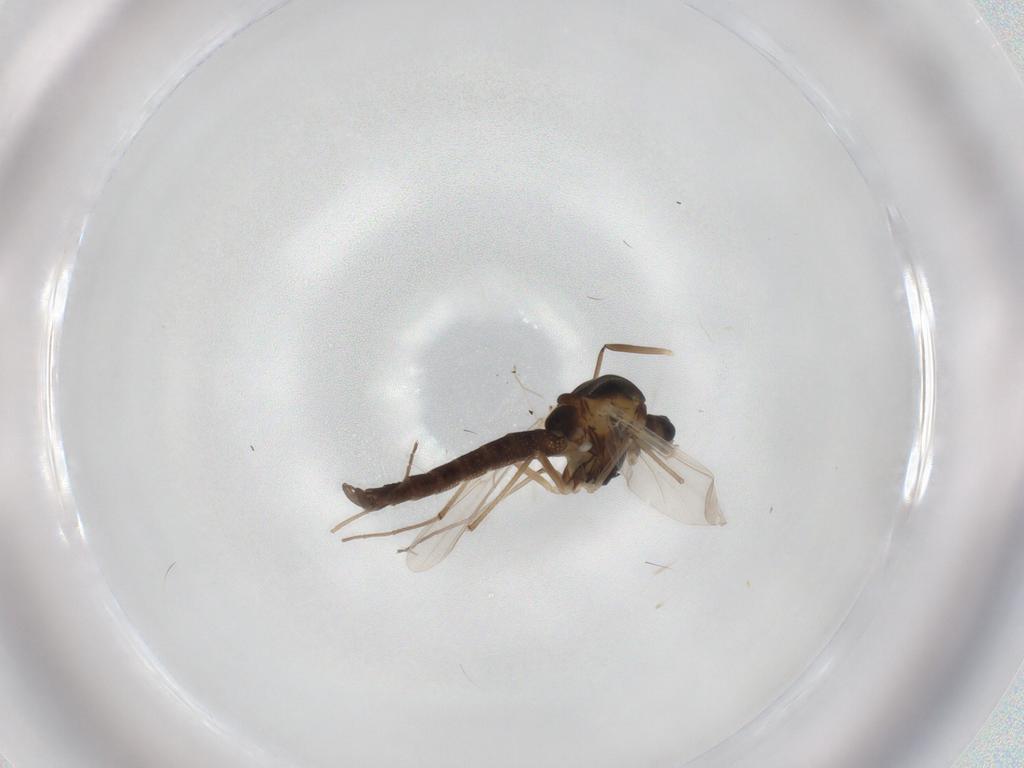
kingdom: Animalia
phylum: Arthropoda
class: Insecta
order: Diptera
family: Chironomidae
